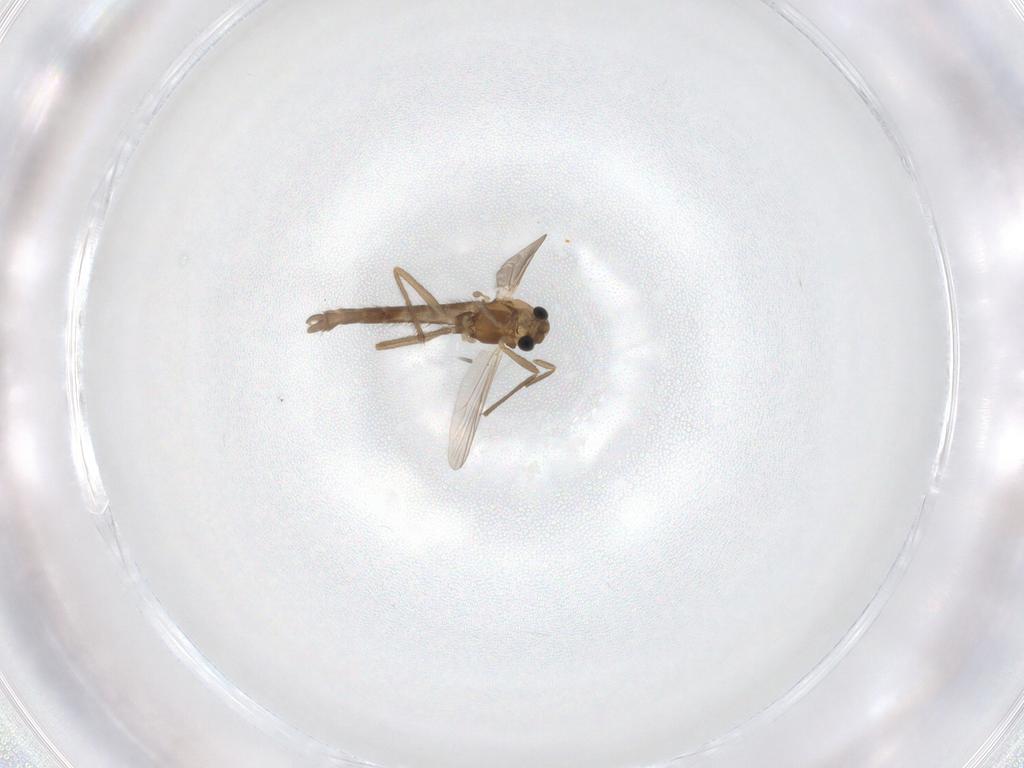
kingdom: Animalia
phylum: Arthropoda
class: Insecta
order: Diptera
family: Chironomidae
